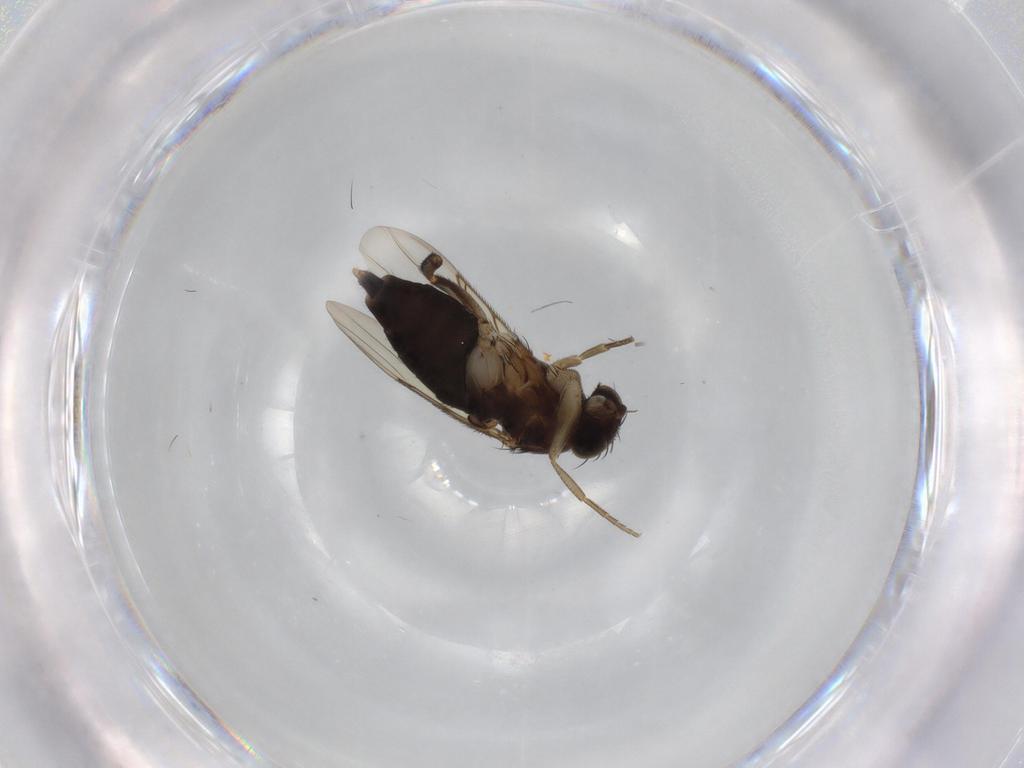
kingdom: Animalia
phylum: Arthropoda
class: Insecta
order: Diptera
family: Phoridae
